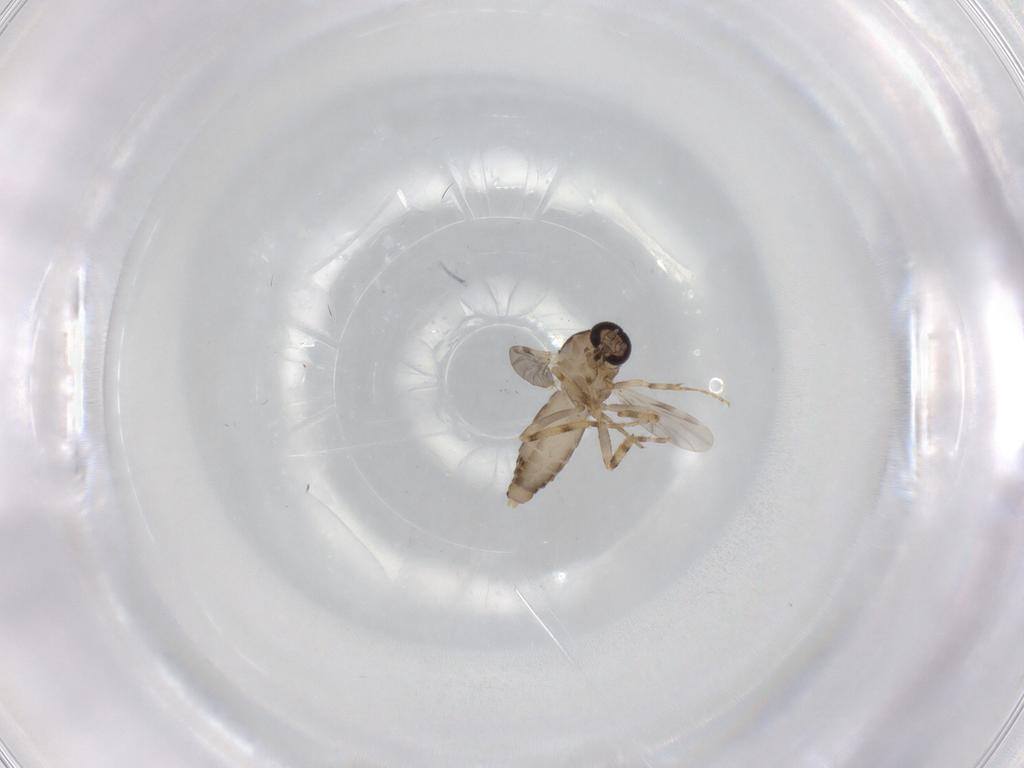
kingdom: Animalia
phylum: Arthropoda
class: Insecta
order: Diptera
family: Ceratopogonidae
